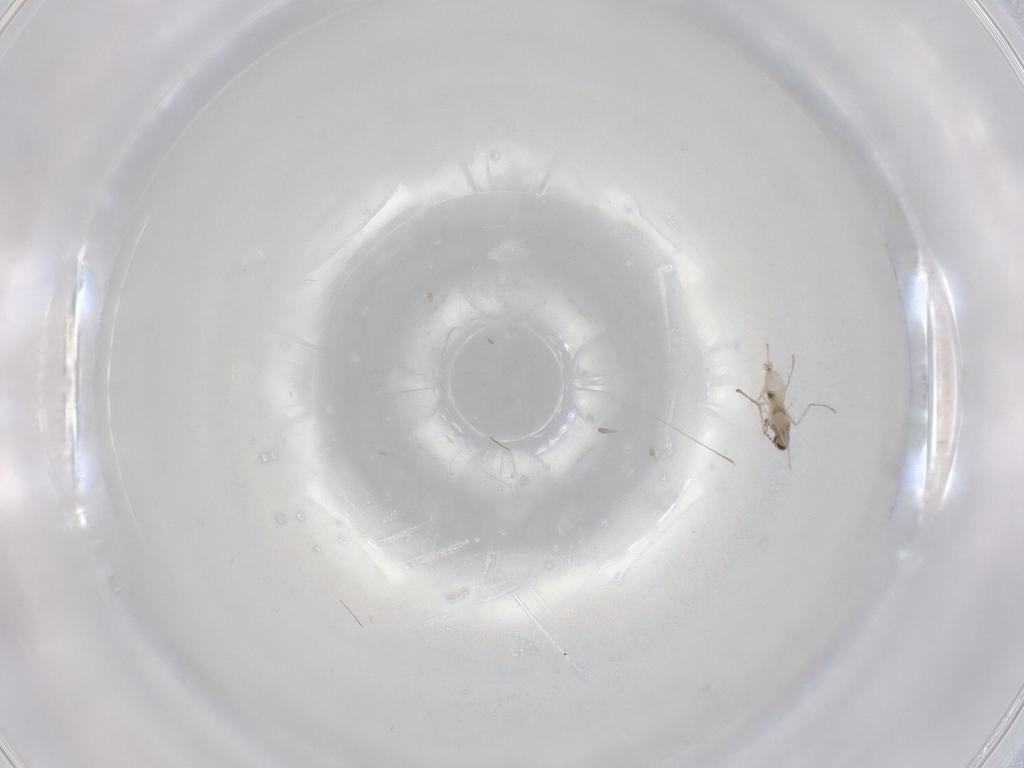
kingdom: Animalia
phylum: Arthropoda
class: Insecta
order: Diptera
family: Cecidomyiidae
